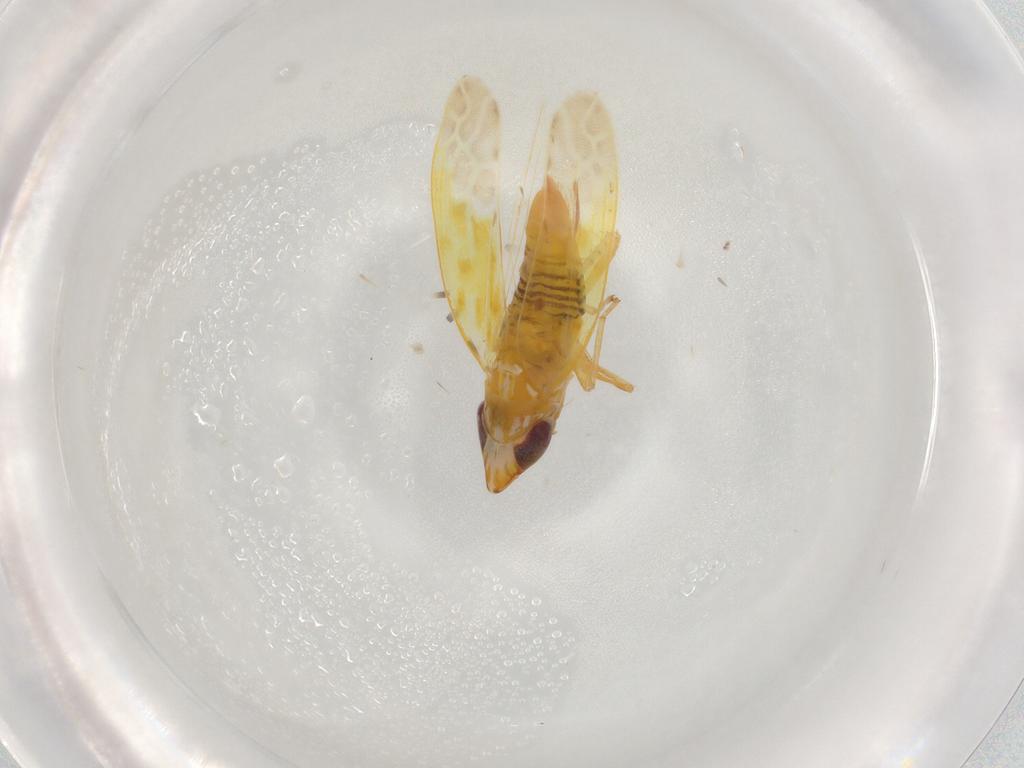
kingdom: Animalia
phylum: Arthropoda
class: Insecta
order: Hemiptera
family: Cicadellidae
